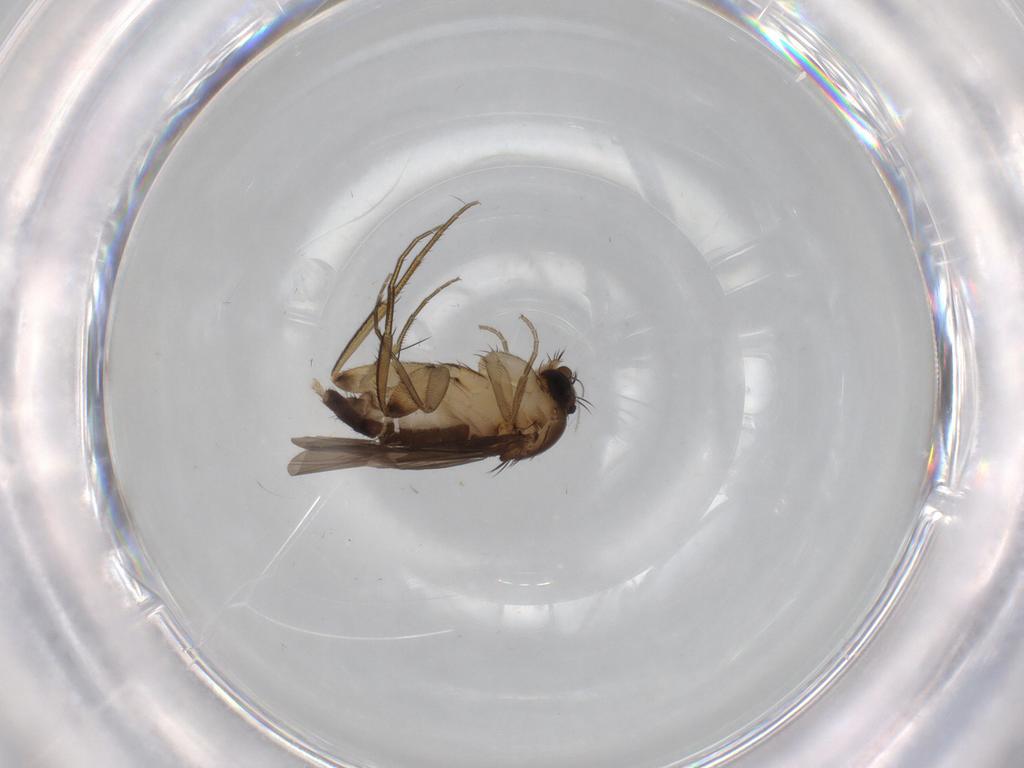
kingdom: Animalia
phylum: Arthropoda
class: Insecta
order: Diptera
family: Phoridae
